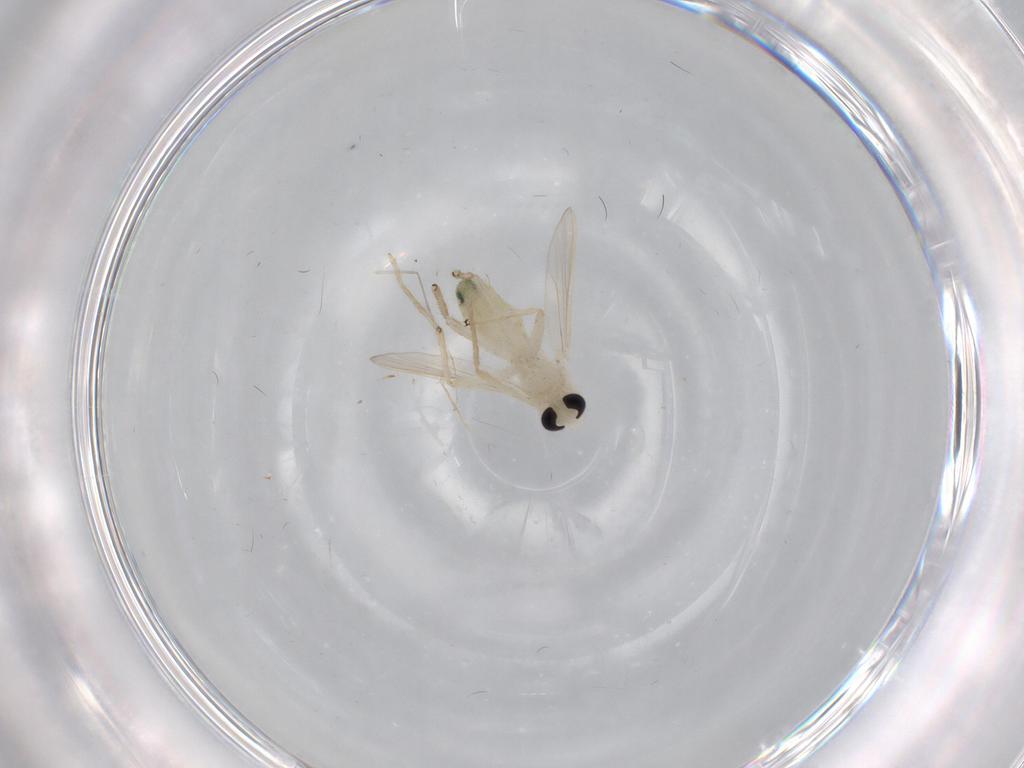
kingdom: Animalia
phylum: Arthropoda
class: Insecta
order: Diptera
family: Chironomidae
